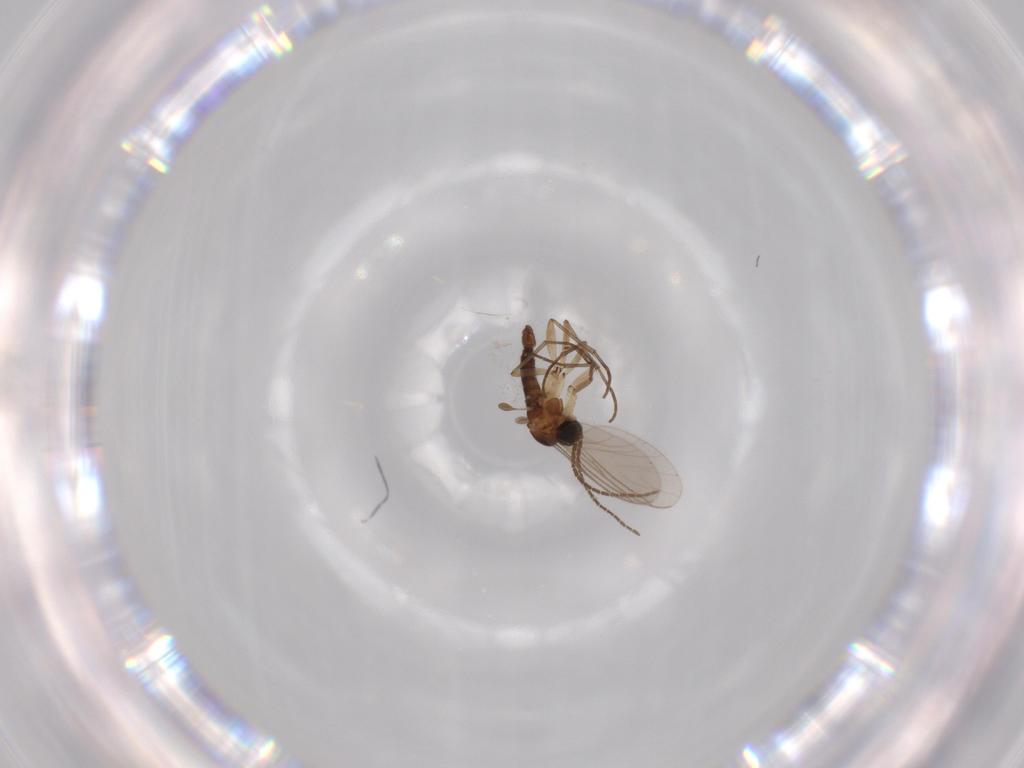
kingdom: Animalia
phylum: Arthropoda
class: Insecta
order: Diptera
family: Sciaridae
